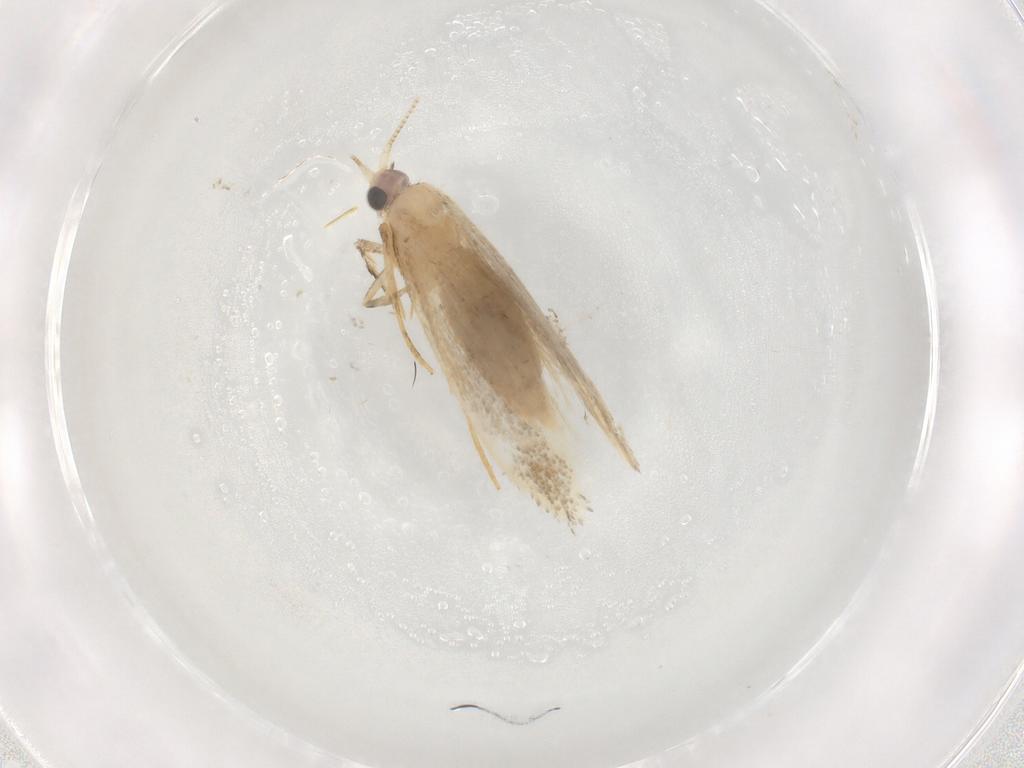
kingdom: Animalia
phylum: Arthropoda
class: Insecta
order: Lepidoptera
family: Nepticulidae
